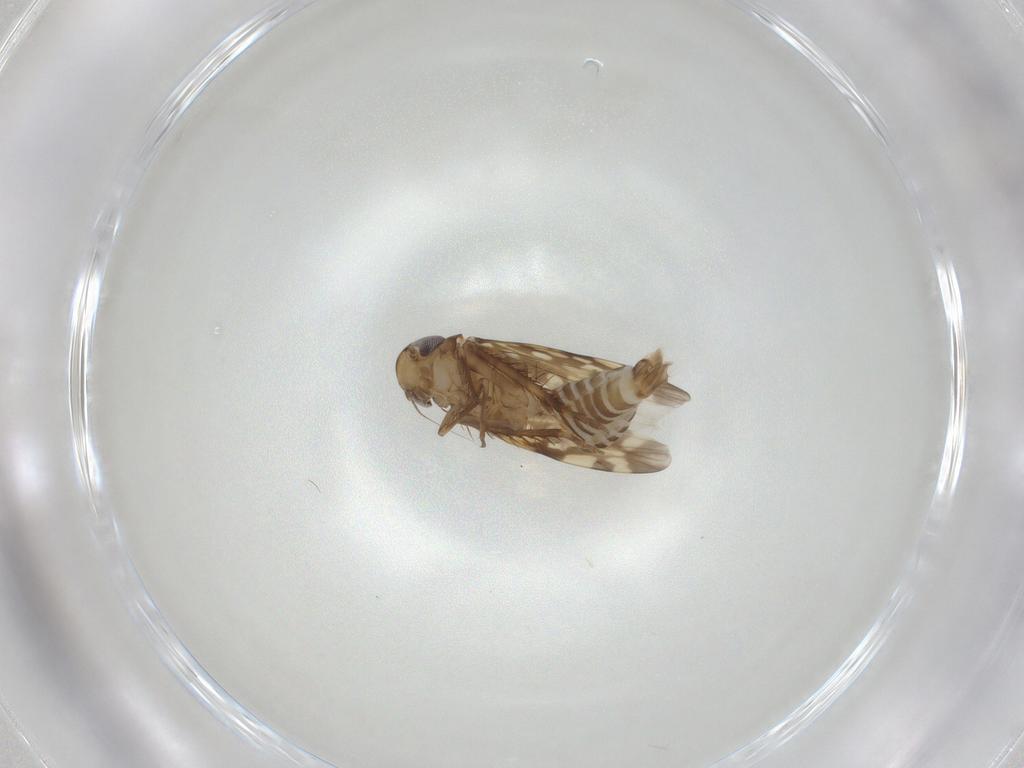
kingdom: Animalia
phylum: Arthropoda
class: Insecta
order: Hemiptera
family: Cicadellidae
